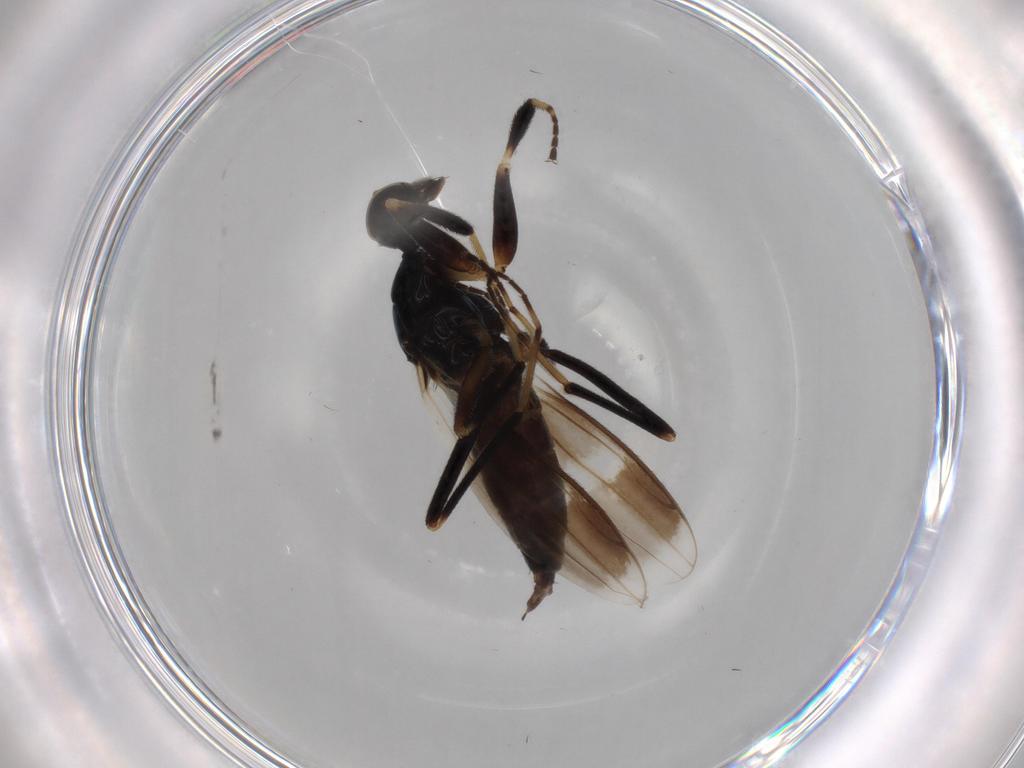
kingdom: Animalia
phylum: Arthropoda
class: Insecta
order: Diptera
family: Hybotidae
